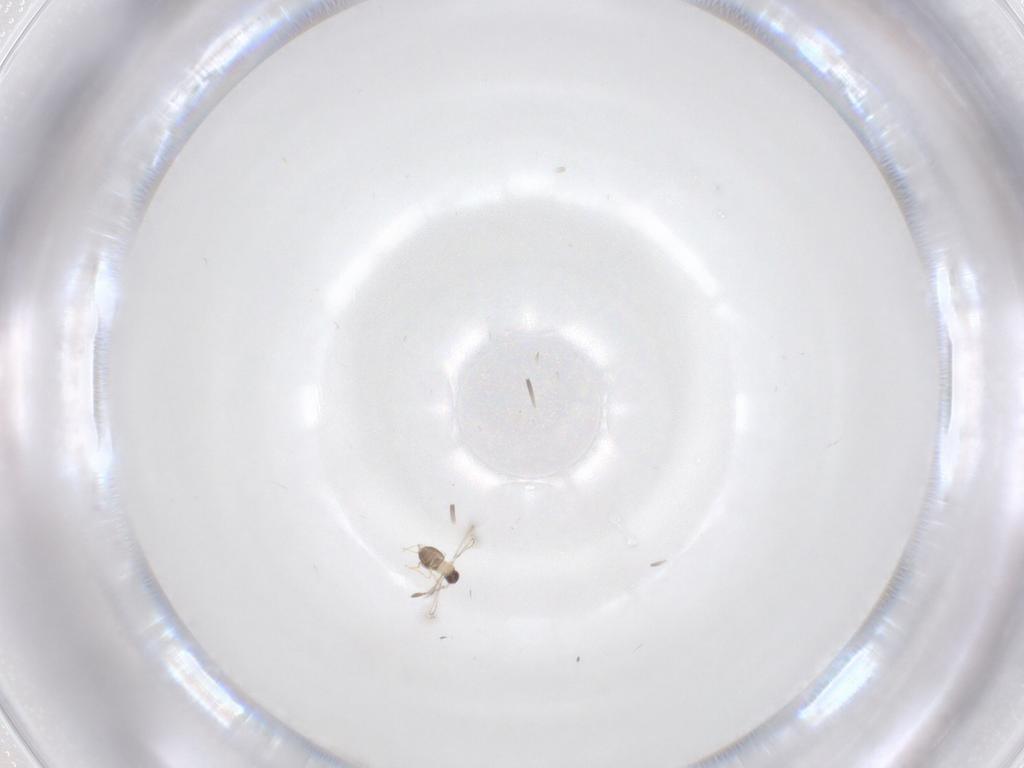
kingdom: Animalia
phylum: Arthropoda
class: Insecta
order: Hymenoptera
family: Mymaridae
